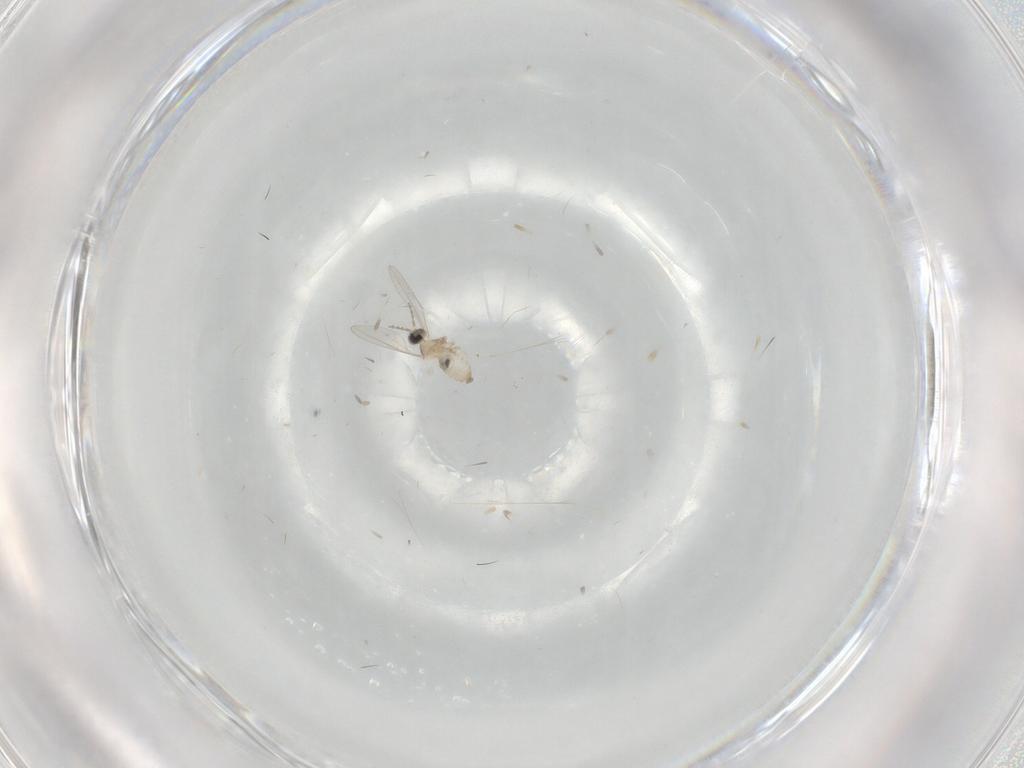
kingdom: Animalia
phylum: Arthropoda
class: Insecta
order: Diptera
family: Cecidomyiidae
